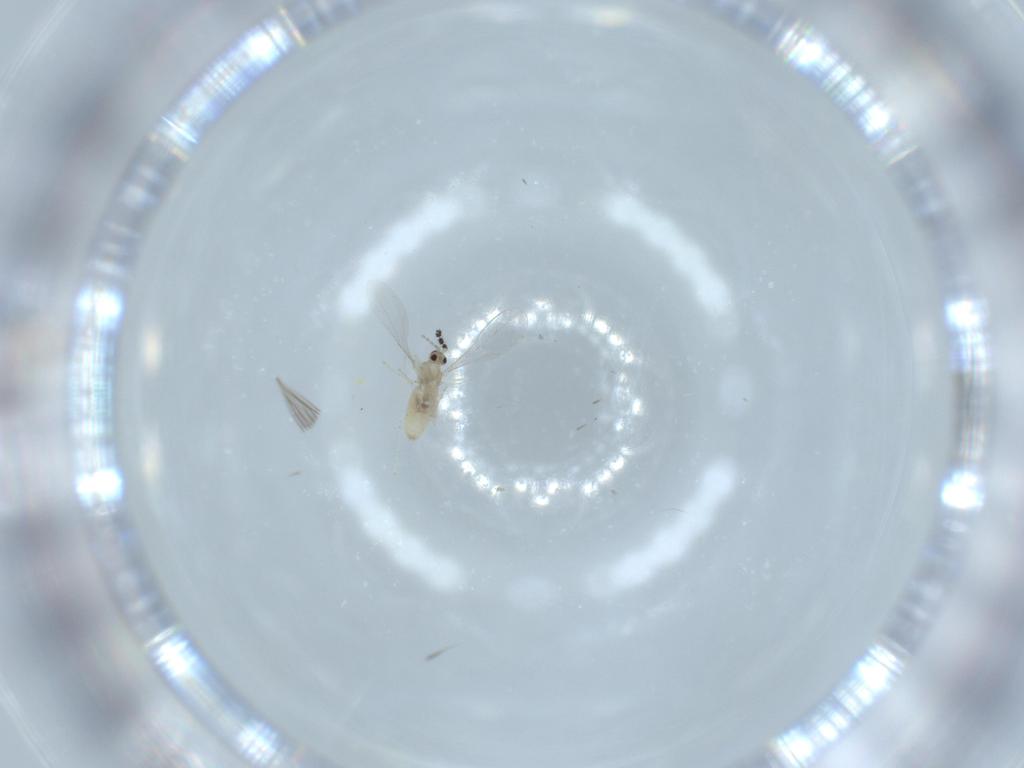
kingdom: Animalia
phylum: Arthropoda
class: Insecta
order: Diptera
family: Cecidomyiidae
